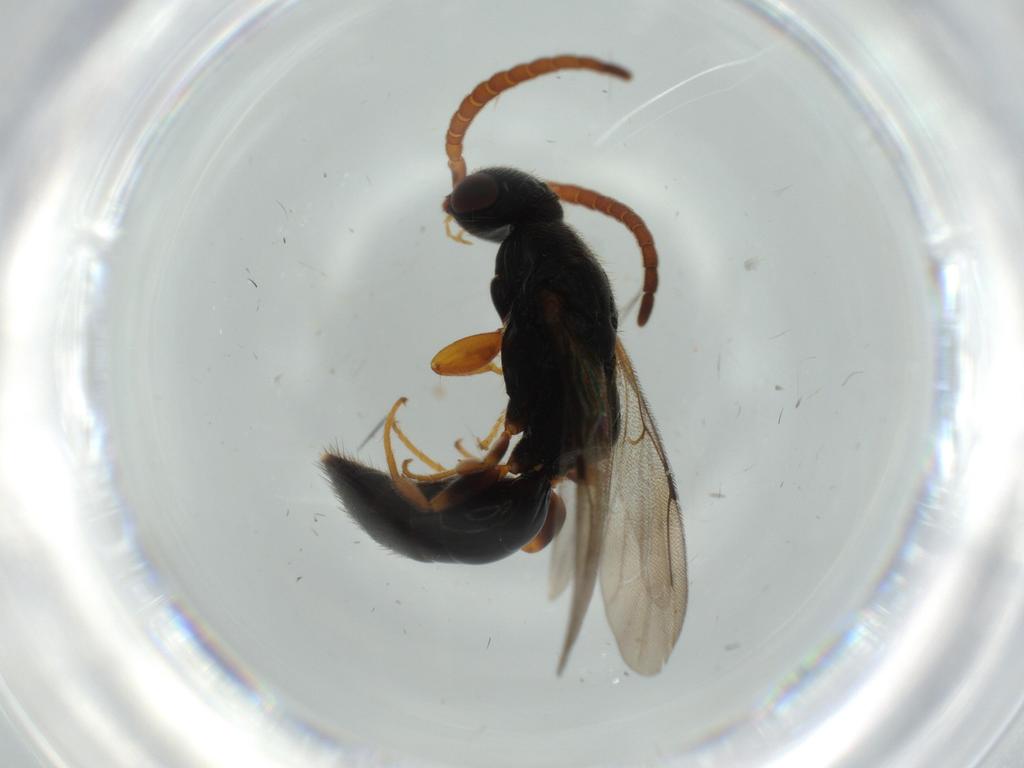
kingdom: Animalia
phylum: Arthropoda
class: Insecta
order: Hymenoptera
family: Bethylidae
